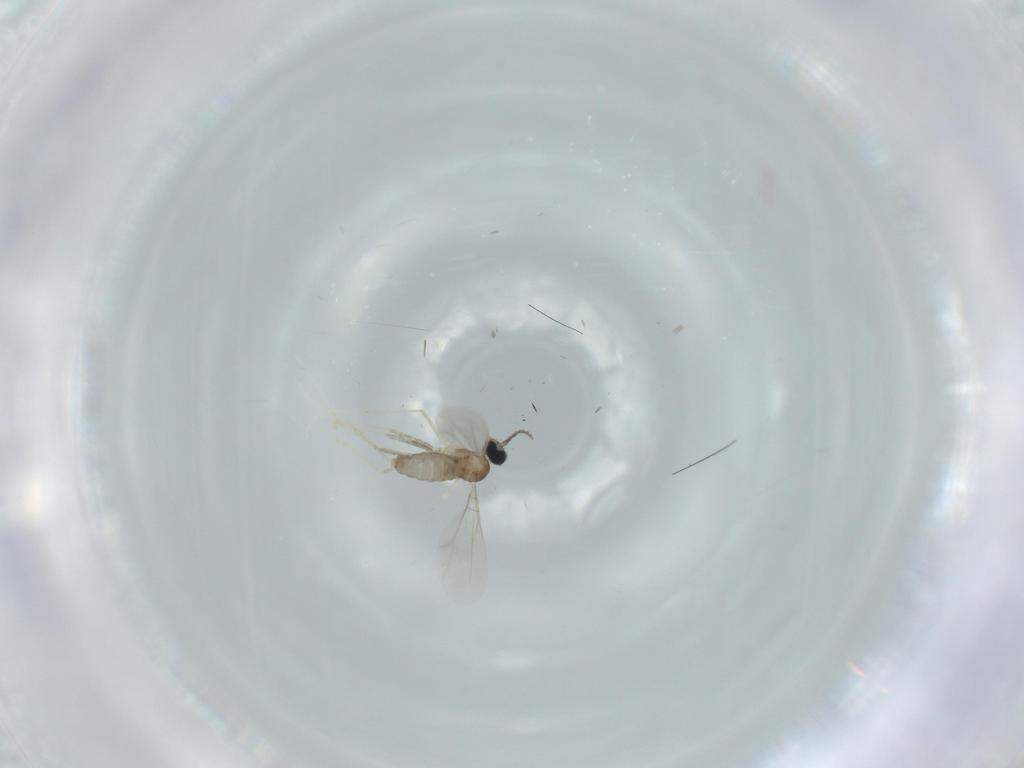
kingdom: Animalia
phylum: Arthropoda
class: Insecta
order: Diptera
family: Cecidomyiidae
